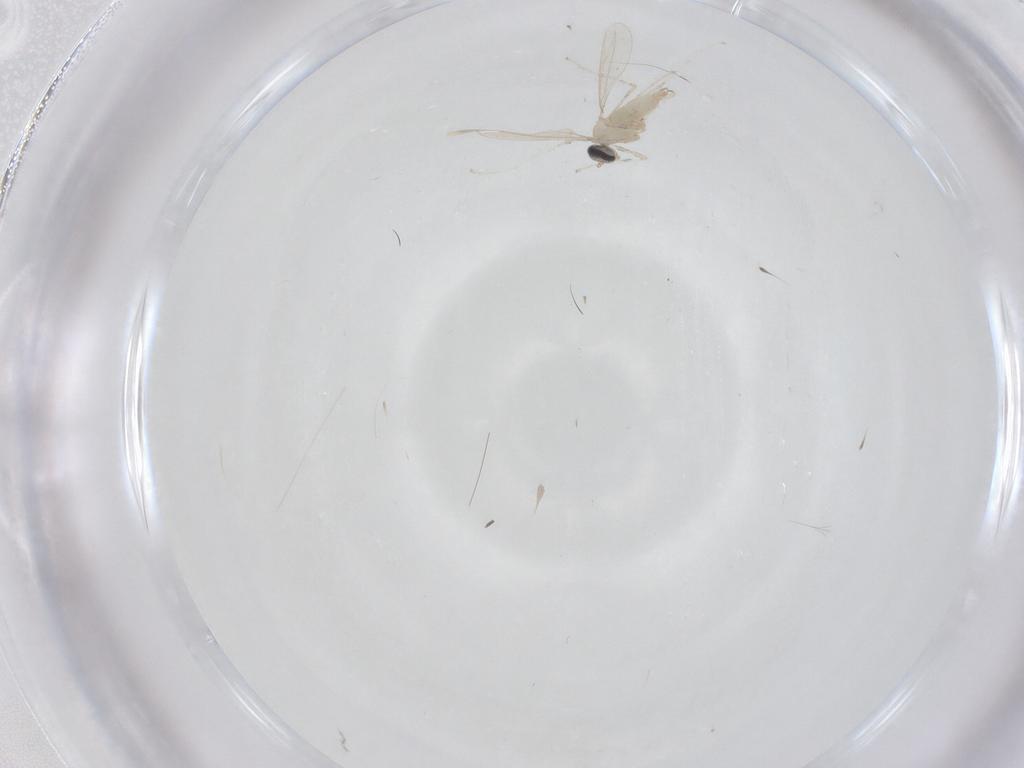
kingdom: Animalia
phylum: Arthropoda
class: Insecta
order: Diptera
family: Cecidomyiidae
